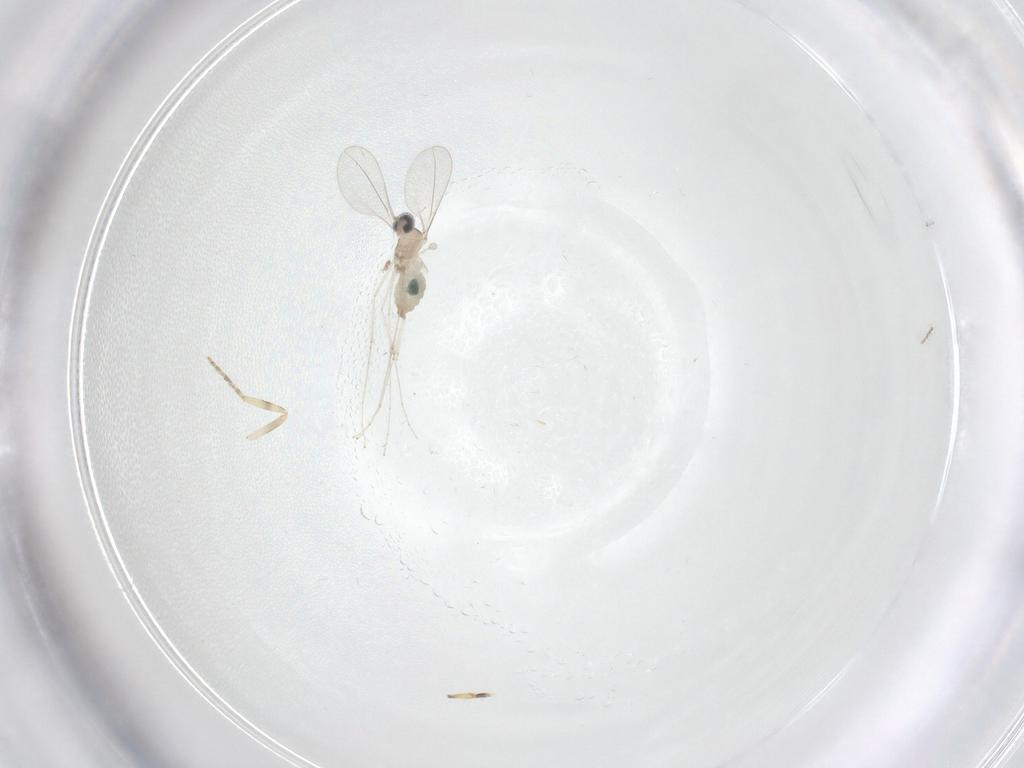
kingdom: Animalia
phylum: Arthropoda
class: Insecta
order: Diptera
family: Cecidomyiidae
